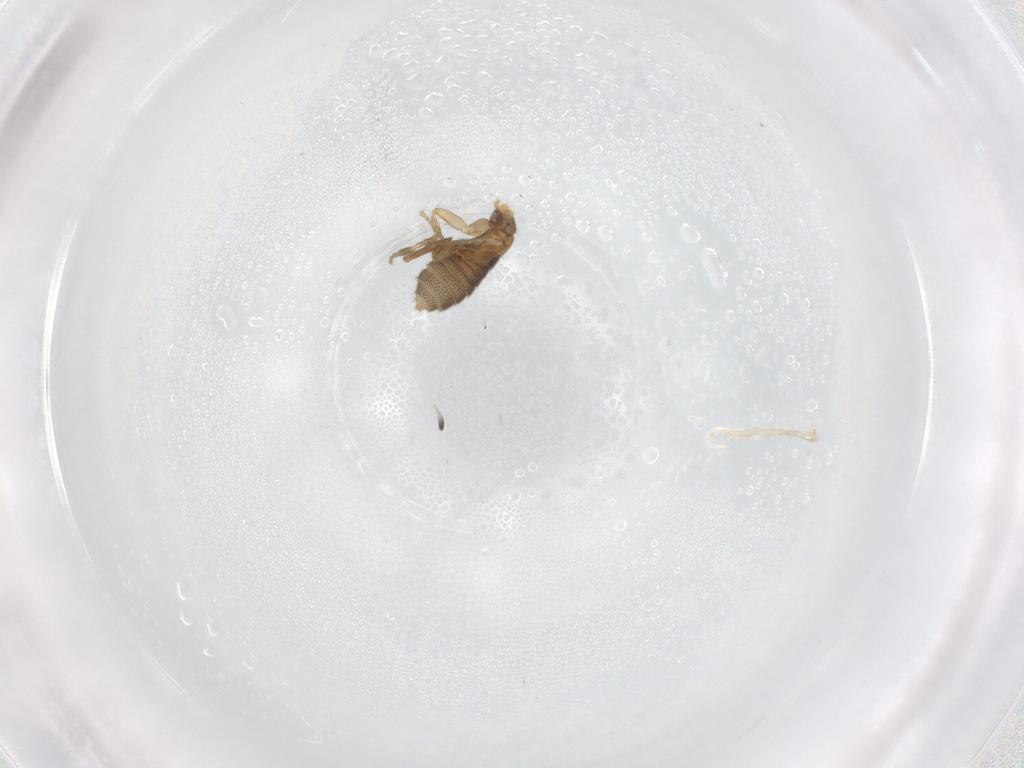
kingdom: Animalia
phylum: Arthropoda
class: Insecta
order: Diptera
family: Phoridae
